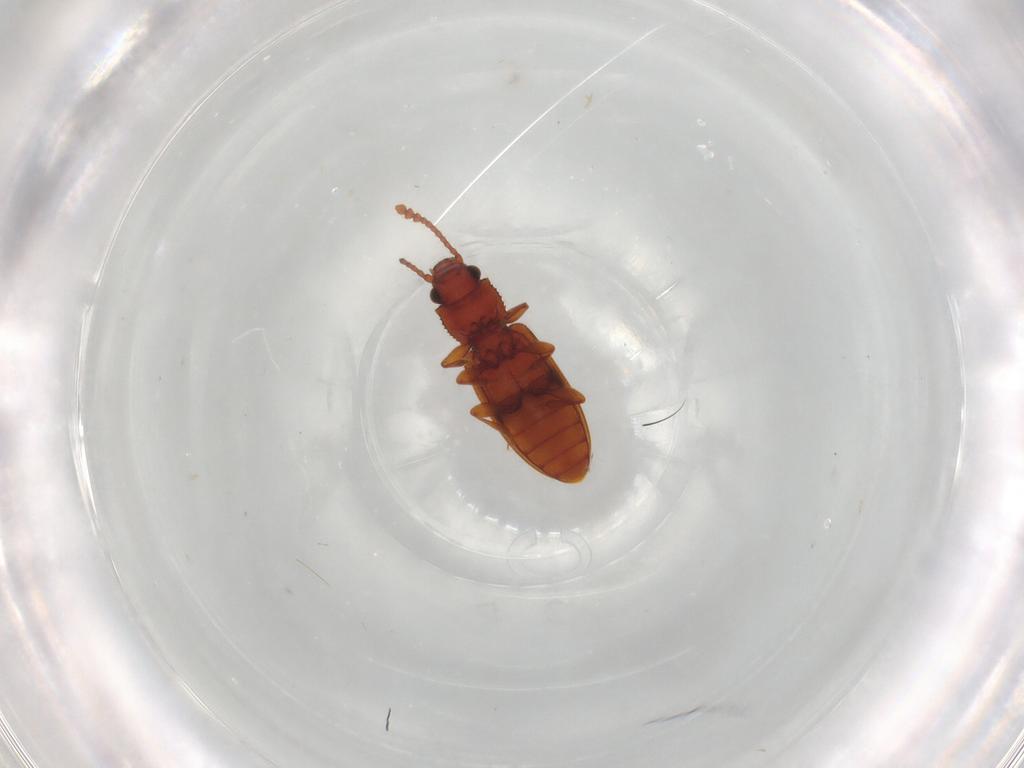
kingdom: Animalia
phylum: Arthropoda
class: Insecta
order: Coleoptera
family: Silvanidae
